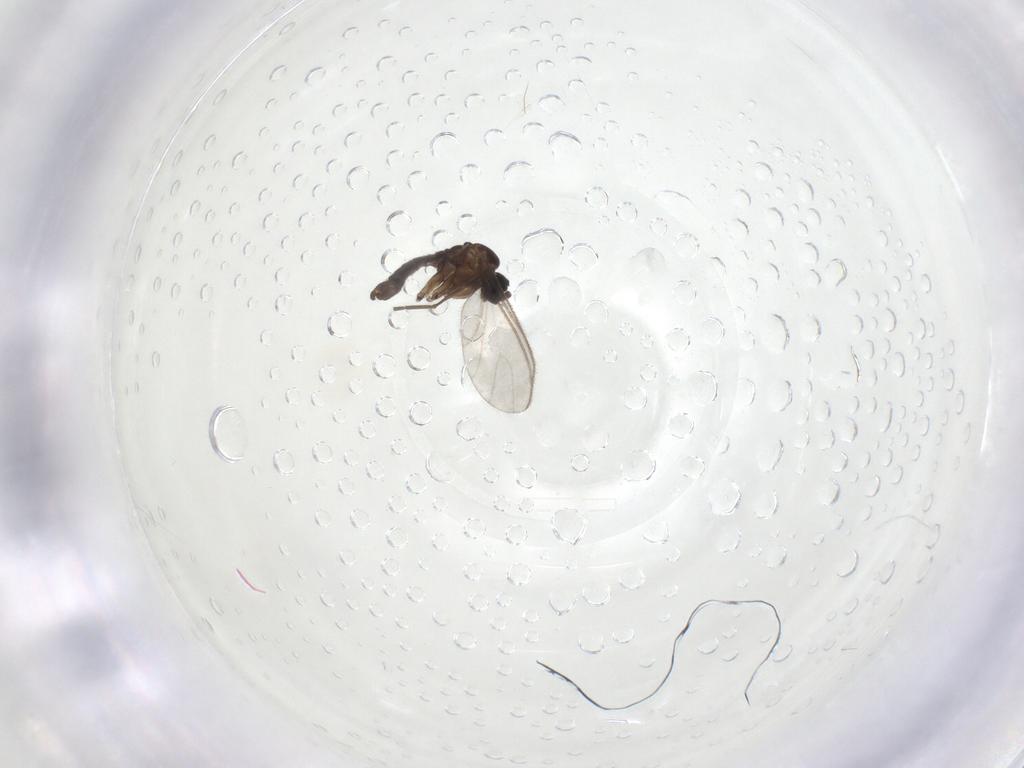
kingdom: Animalia
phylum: Arthropoda
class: Insecta
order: Diptera
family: Sciaridae
